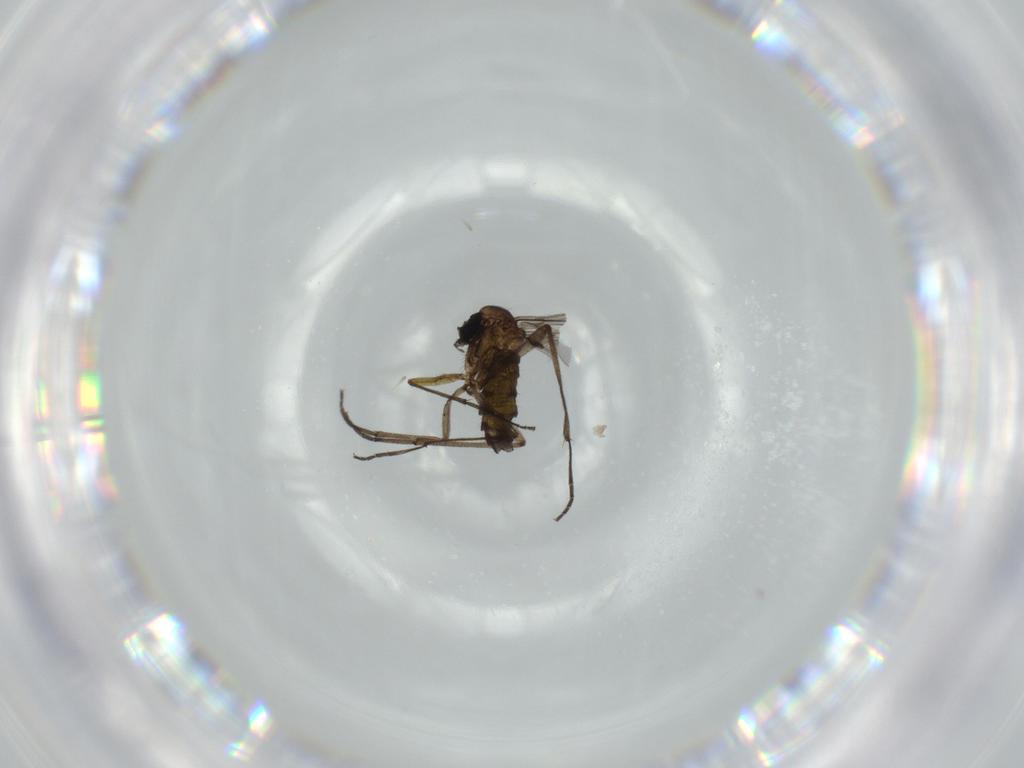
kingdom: Animalia
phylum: Arthropoda
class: Insecta
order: Diptera
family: Sciaridae
